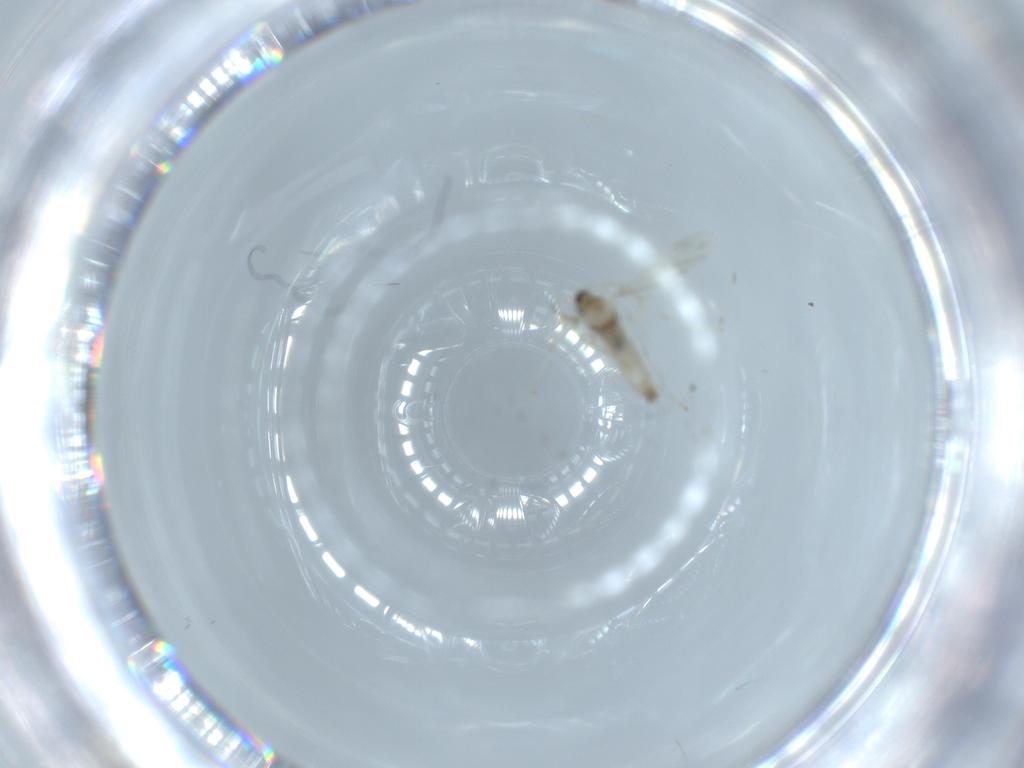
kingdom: Animalia
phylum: Arthropoda
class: Insecta
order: Diptera
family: Cecidomyiidae
